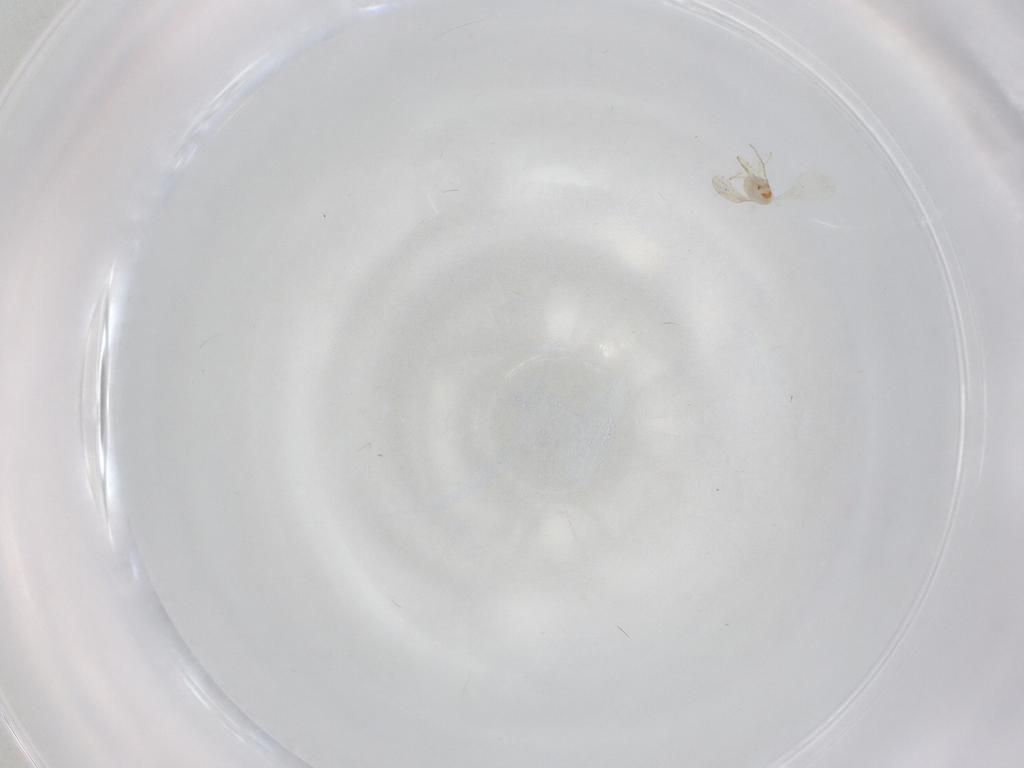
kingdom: Animalia
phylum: Arthropoda
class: Insecta
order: Diptera
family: Cecidomyiidae
